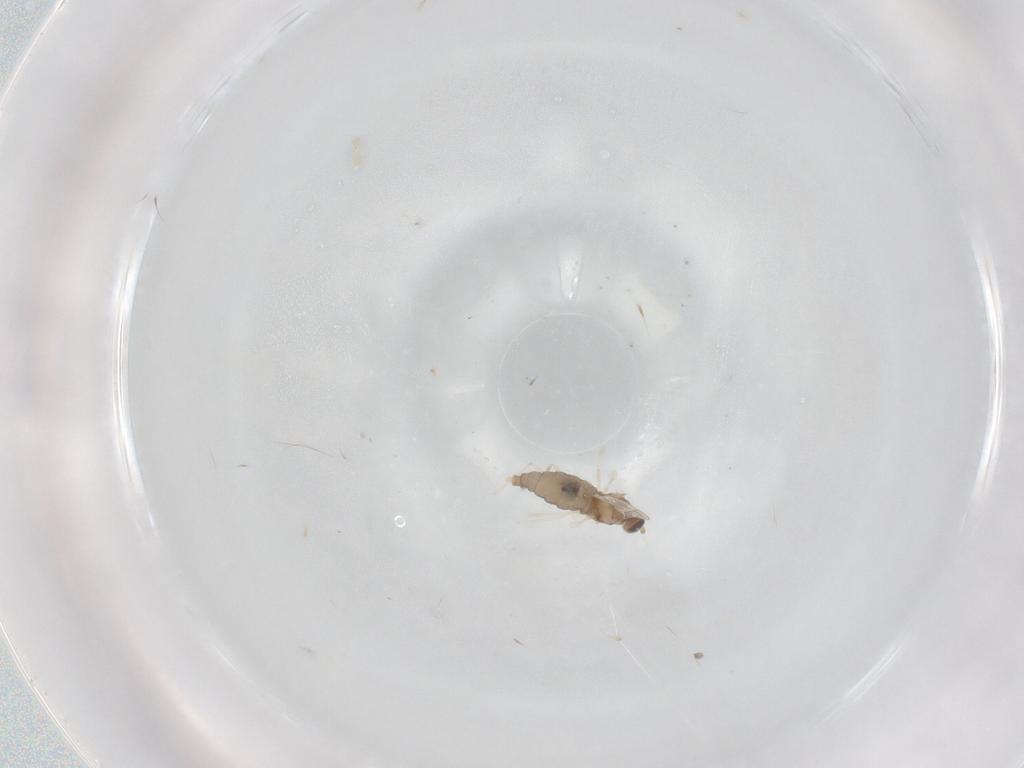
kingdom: Animalia
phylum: Arthropoda
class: Insecta
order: Diptera
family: Cecidomyiidae
